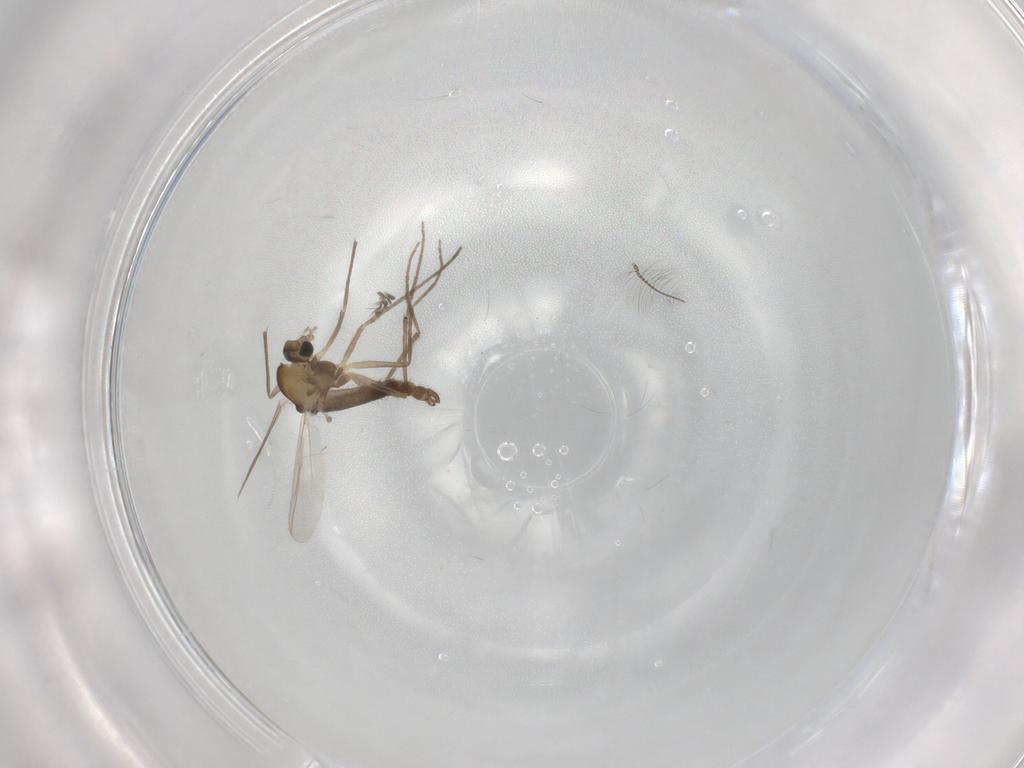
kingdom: Animalia
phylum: Arthropoda
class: Insecta
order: Diptera
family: Chironomidae
